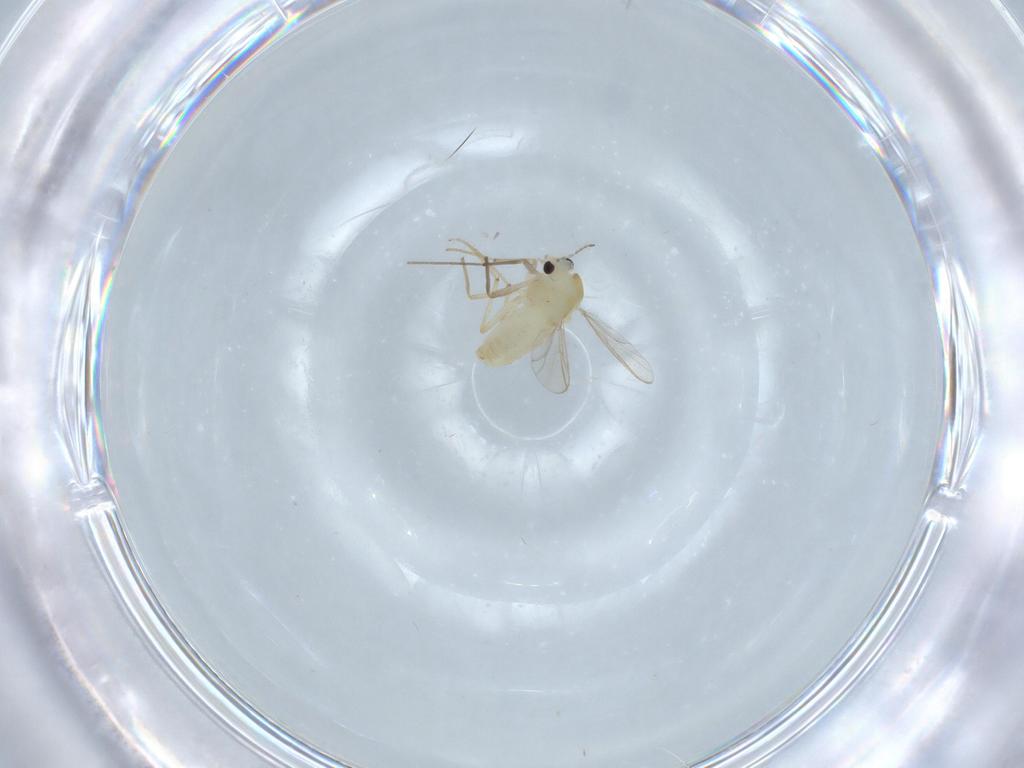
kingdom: Animalia
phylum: Arthropoda
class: Insecta
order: Diptera
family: Chironomidae
